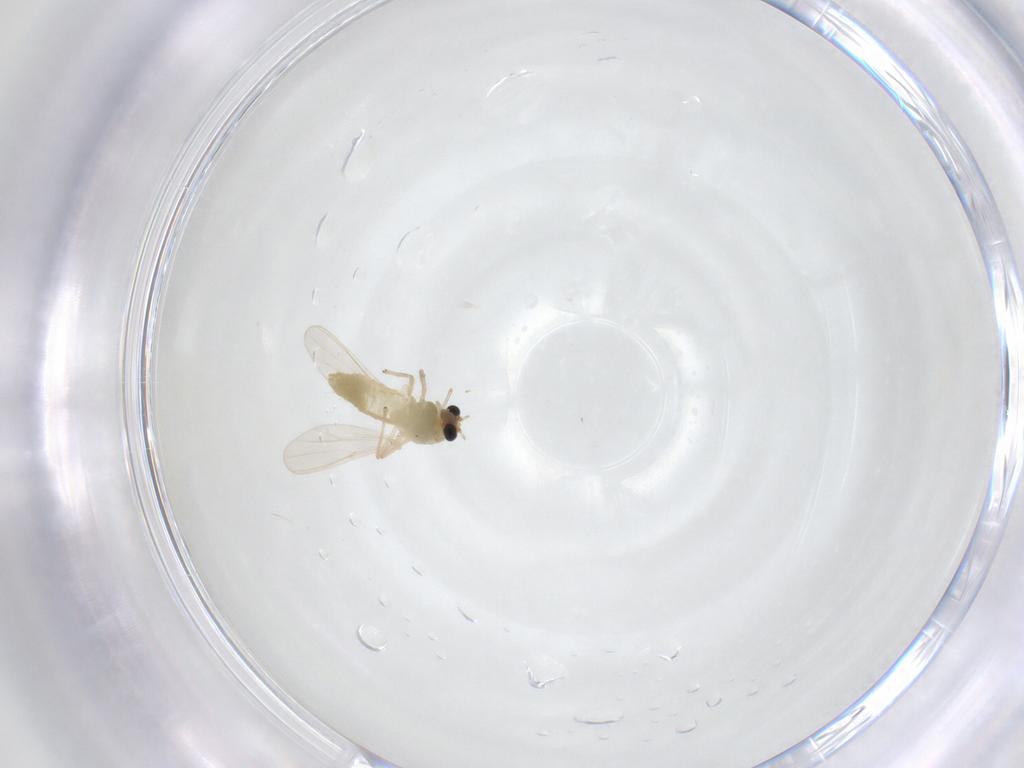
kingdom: Animalia
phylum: Arthropoda
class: Insecta
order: Diptera
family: Chironomidae
